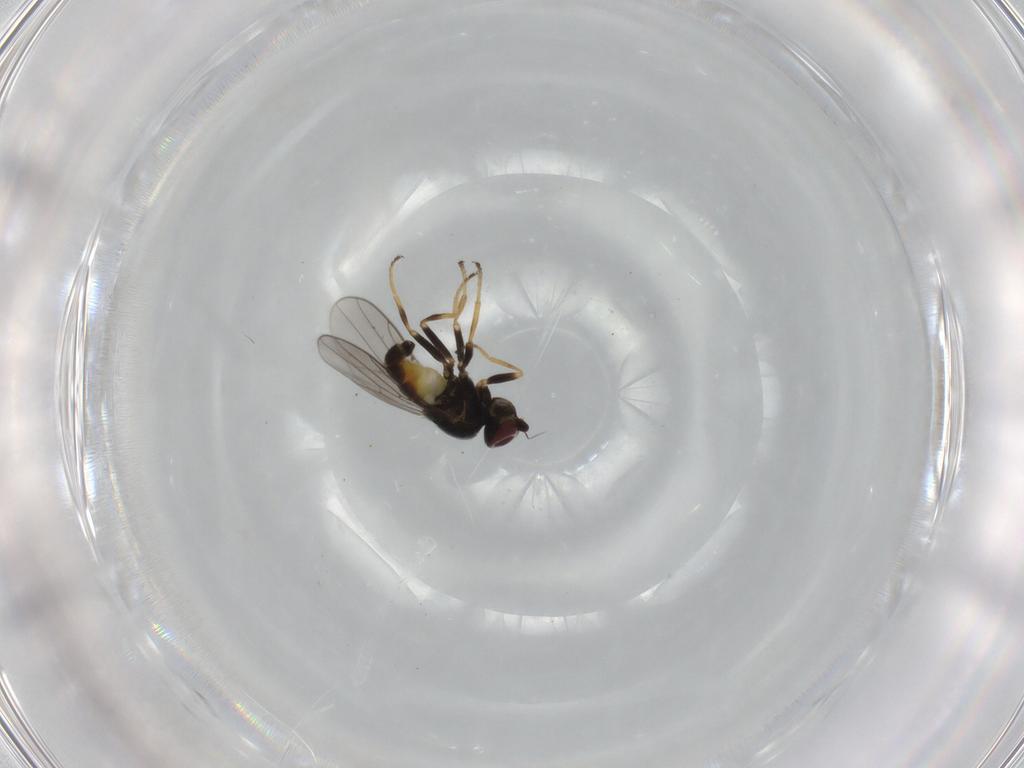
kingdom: Animalia
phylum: Arthropoda
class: Insecta
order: Diptera
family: Chloropidae
